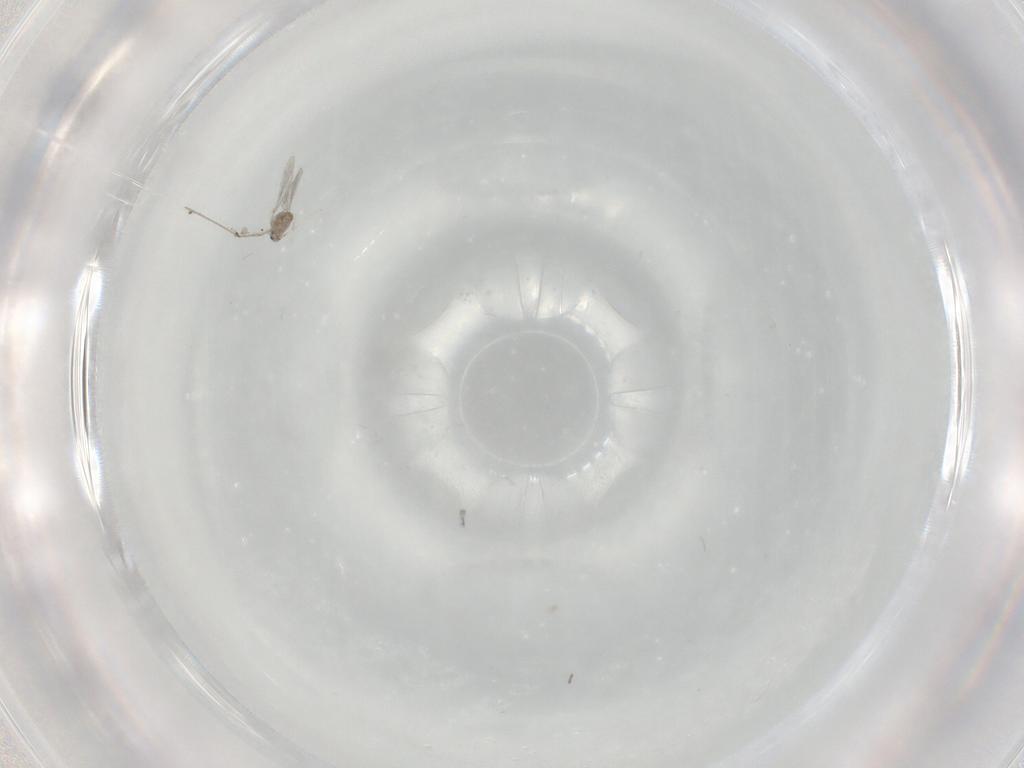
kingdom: Animalia
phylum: Arthropoda
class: Insecta
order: Diptera
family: Cecidomyiidae
